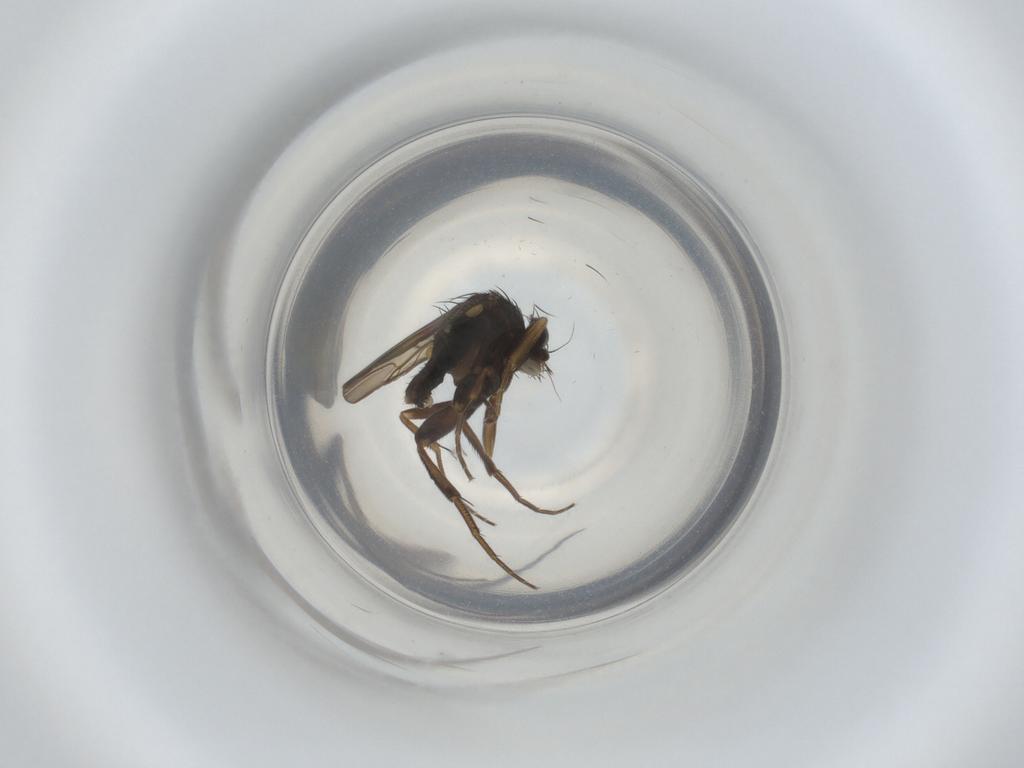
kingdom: Animalia
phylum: Arthropoda
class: Insecta
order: Diptera
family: Phoridae
